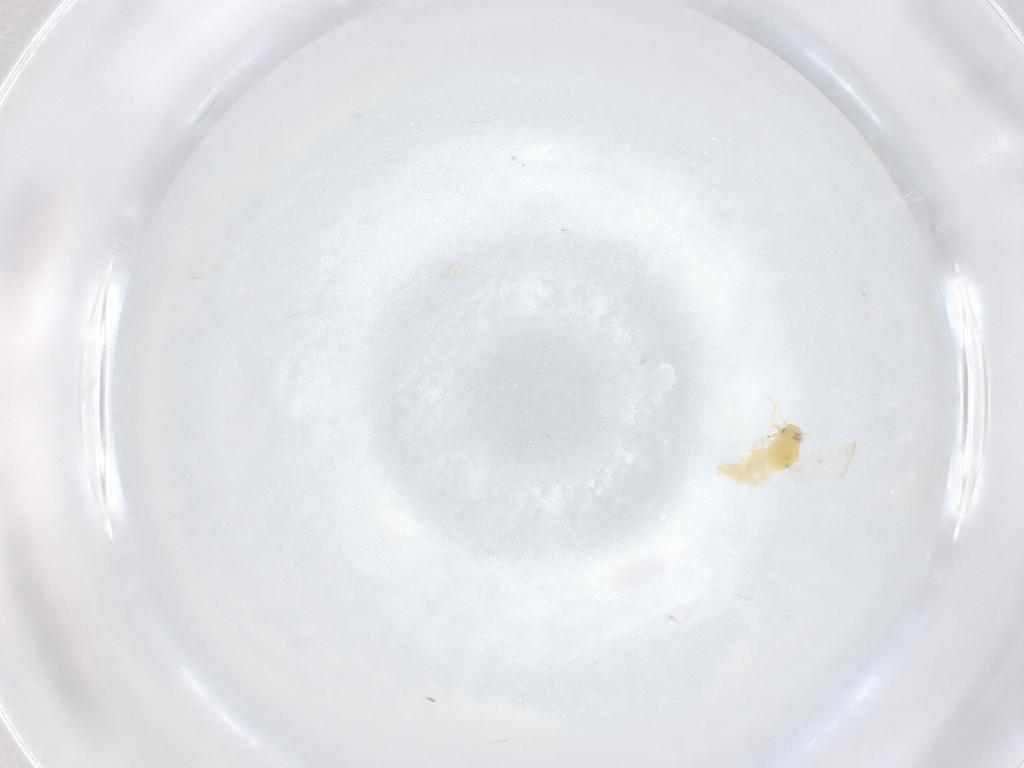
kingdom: Animalia
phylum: Arthropoda
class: Insecta
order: Hemiptera
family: Aleyrodidae
